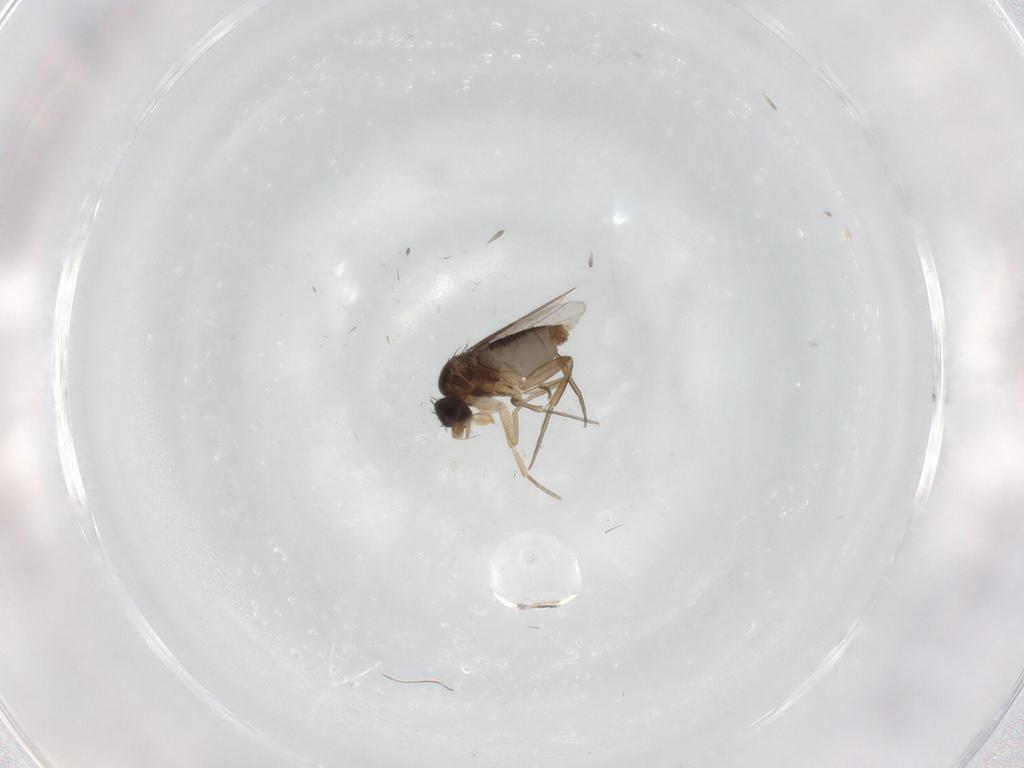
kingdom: Animalia
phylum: Arthropoda
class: Insecta
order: Diptera
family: Phoridae
